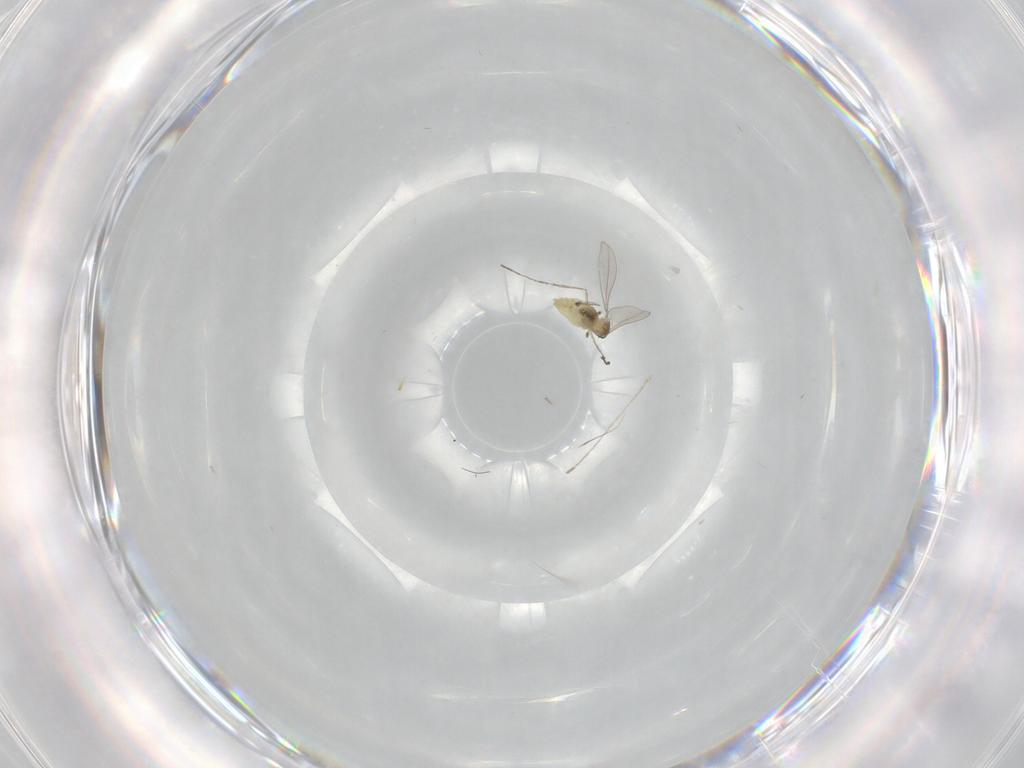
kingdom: Animalia
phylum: Arthropoda
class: Insecta
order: Diptera
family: Cecidomyiidae
